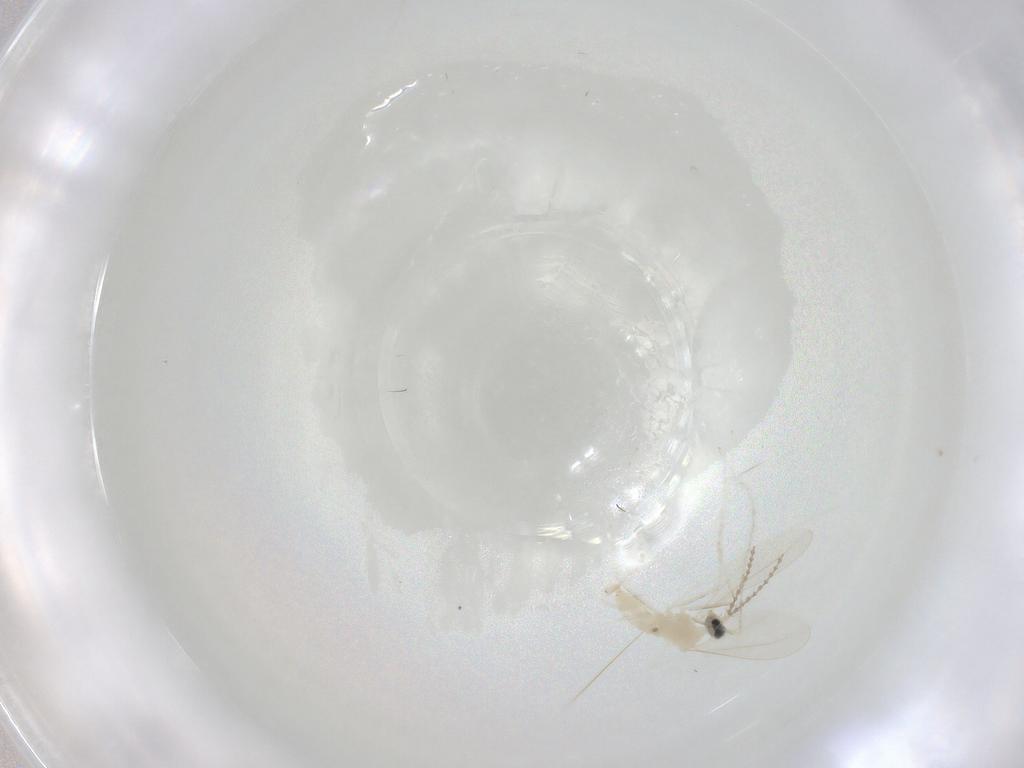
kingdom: Animalia
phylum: Arthropoda
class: Insecta
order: Diptera
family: Cecidomyiidae
